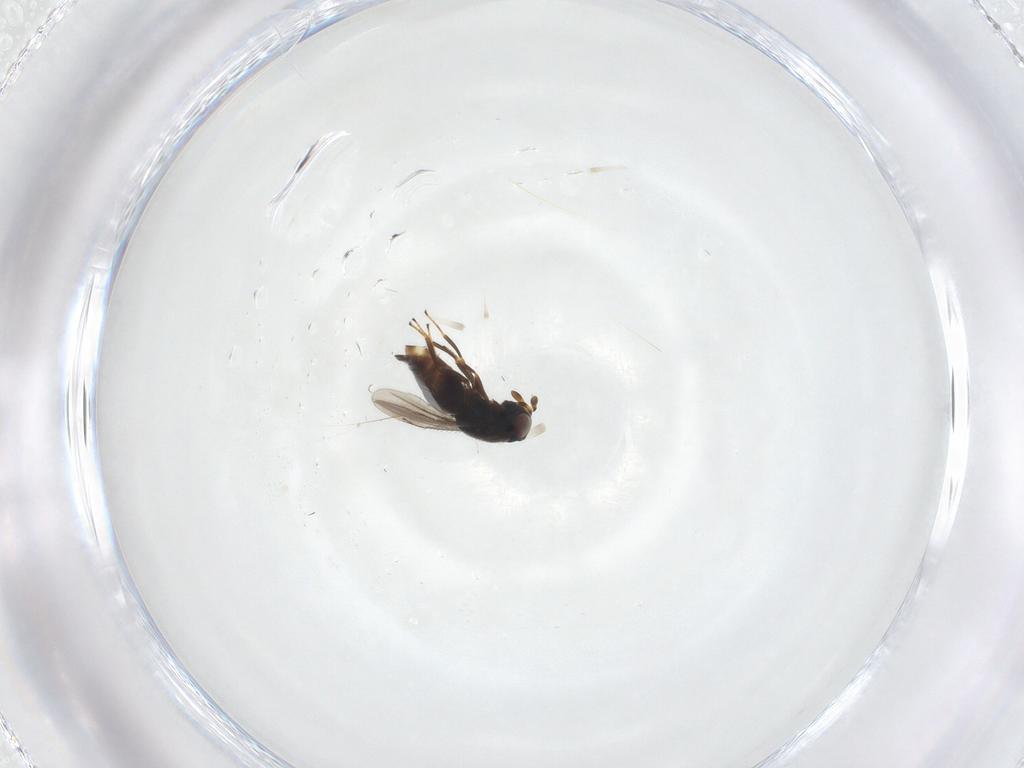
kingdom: Animalia
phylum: Arthropoda
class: Insecta
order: Hymenoptera
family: Eunotidae
